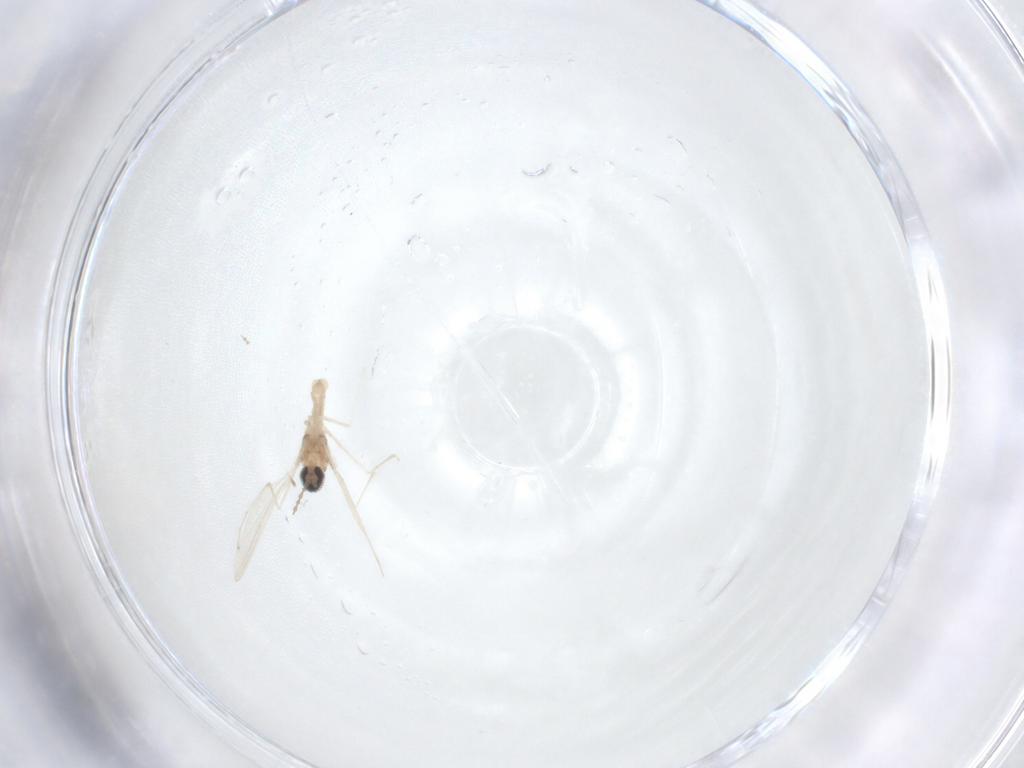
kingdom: Animalia
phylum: Arthropoda
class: Insecta
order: Diptera
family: Cecidomyiidae
